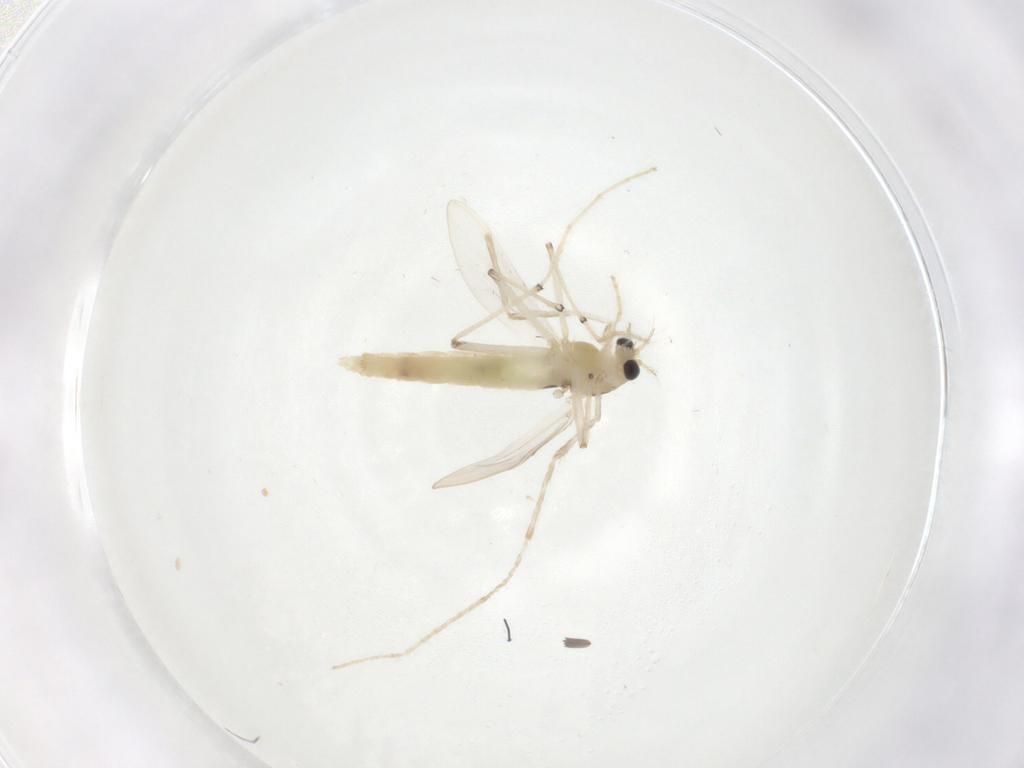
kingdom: Animalia
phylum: Arthropoda
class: Insecta
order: Diptera
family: Chironomidae
